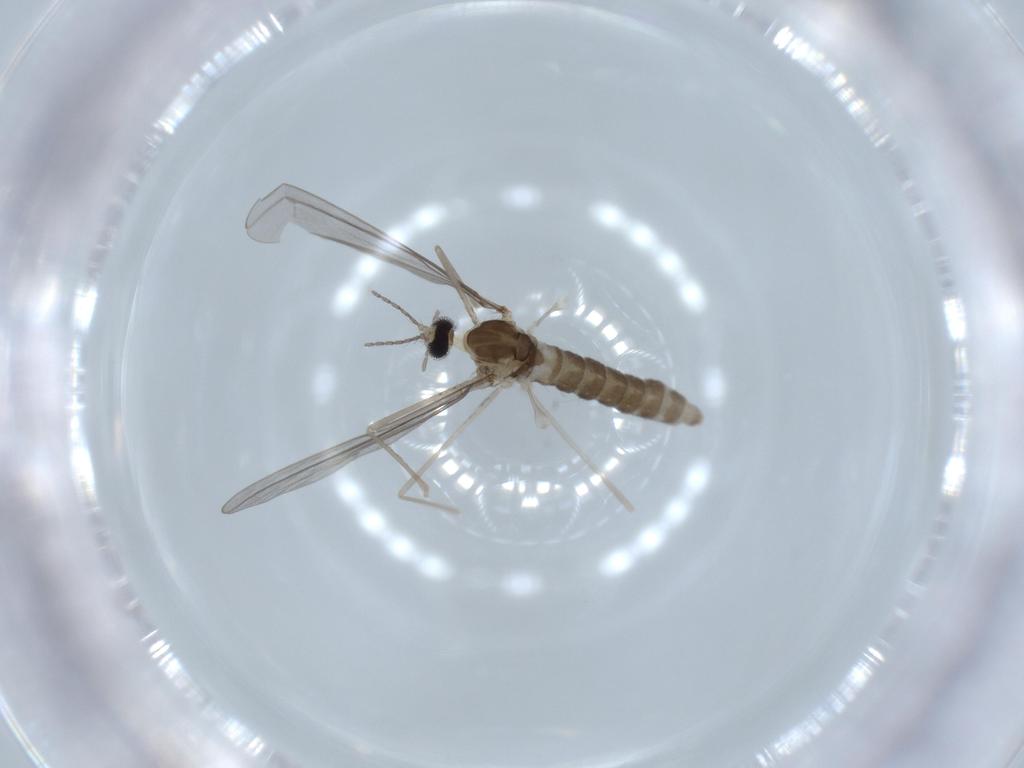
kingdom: Animalia
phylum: Arthropoda
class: Insecta
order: Diptera
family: Cecidomyiidae
